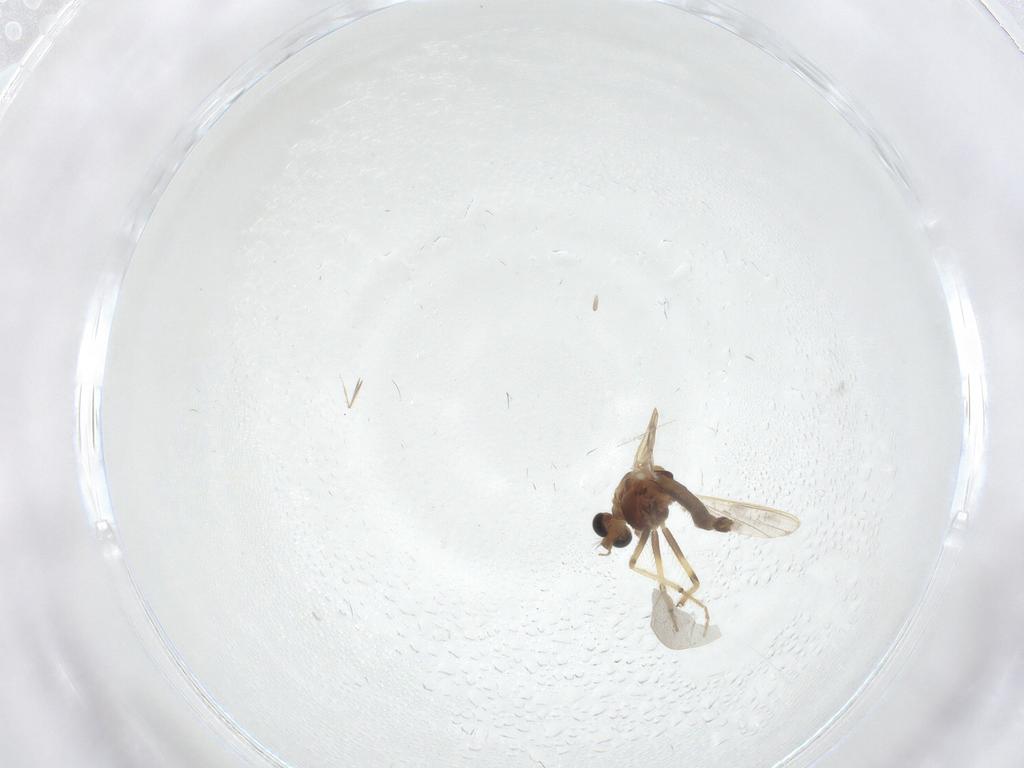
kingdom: Animalia
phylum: Arthropoda
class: Insecta
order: Diptera
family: Chironomidae
